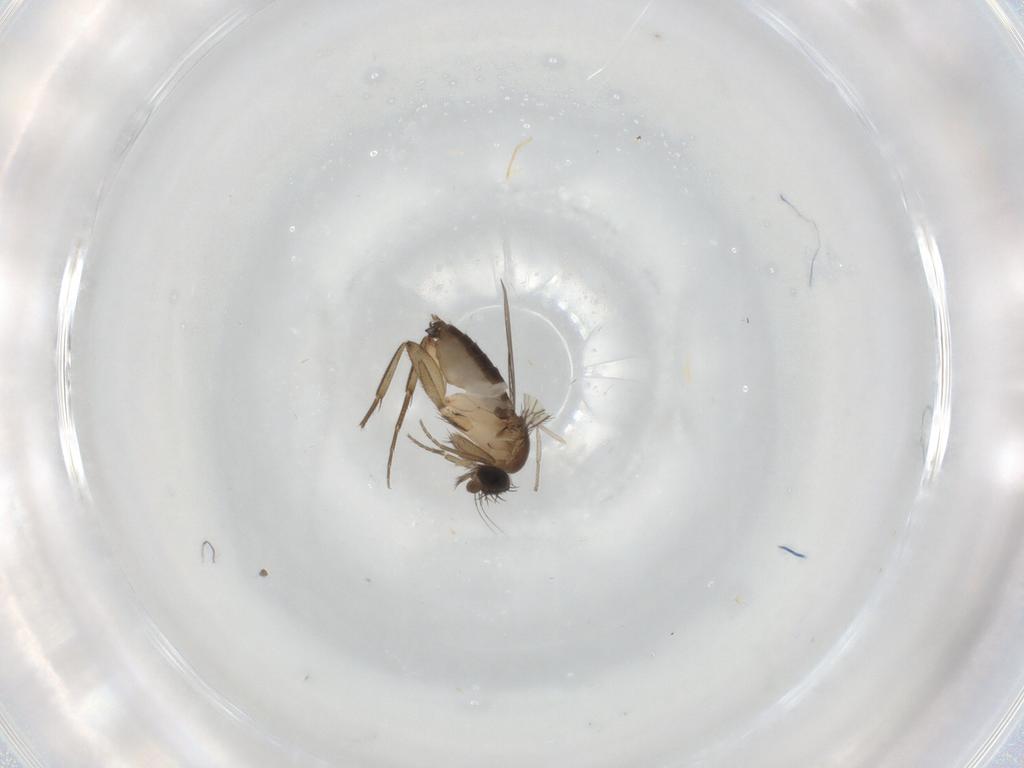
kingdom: Animalia
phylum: Arthropoda
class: Insecta
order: Diptera
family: Phoridae
